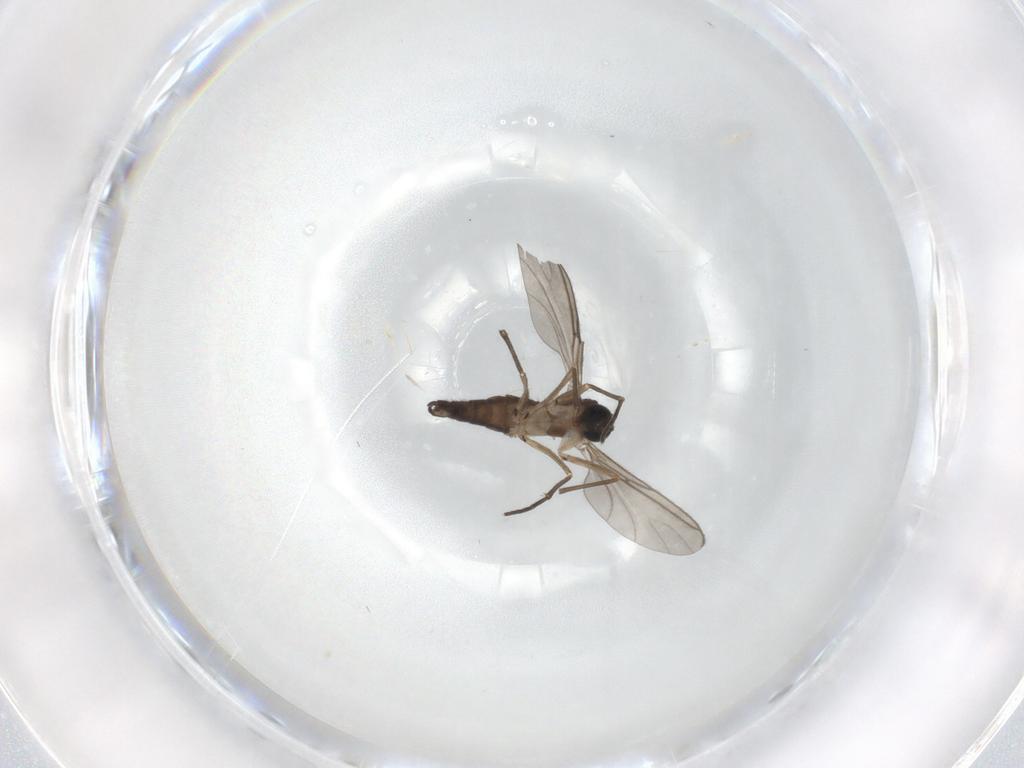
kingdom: Animalia
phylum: Arthropoda
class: Insecta
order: Diptera
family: Sciaridae
